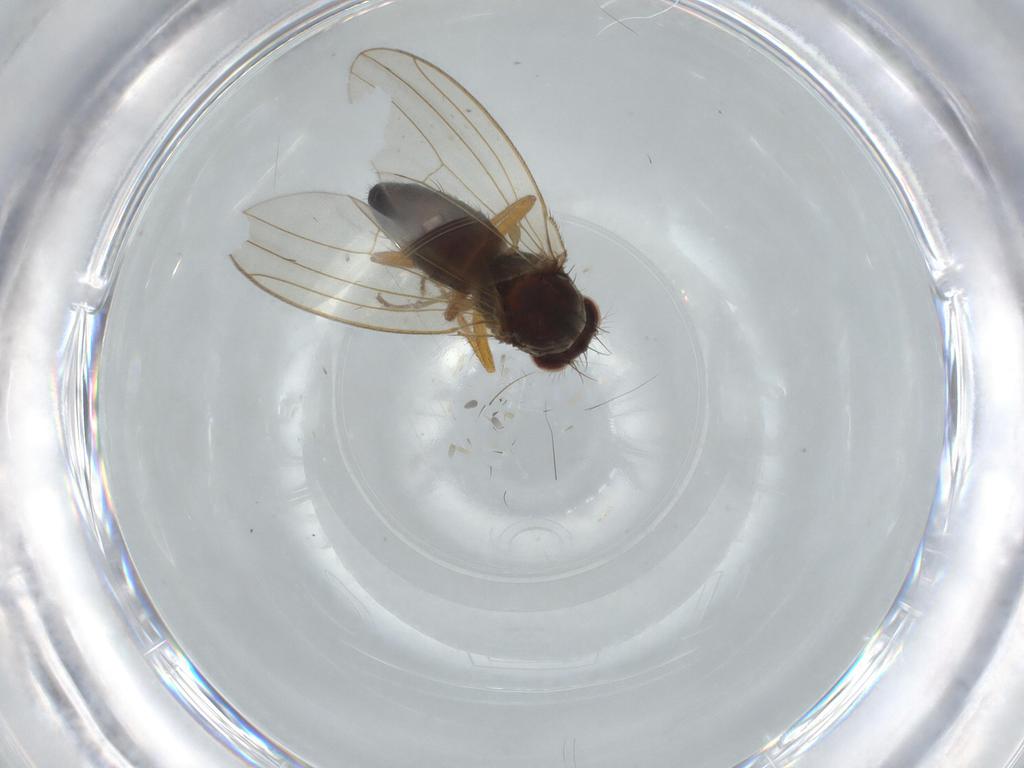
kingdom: Animalia
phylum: Arthropoda
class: Insecta
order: Diptera
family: Drosophilidae
